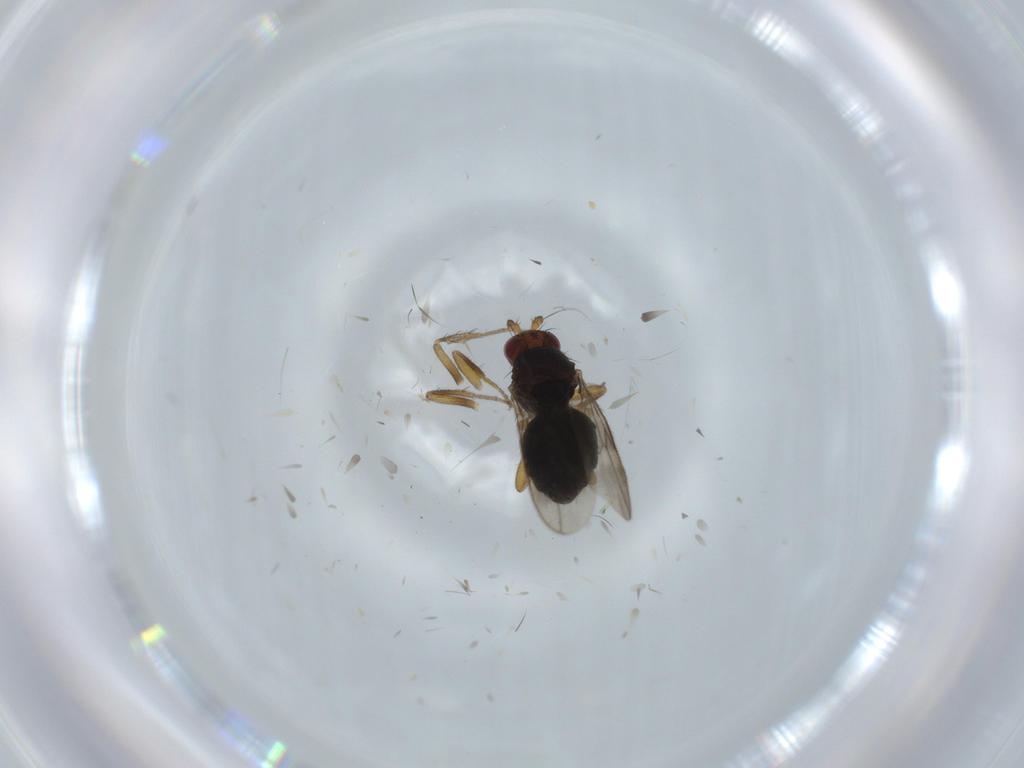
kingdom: Animalia
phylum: Arthropoda
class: Insecta
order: Diptera
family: Sphaeroceridae
